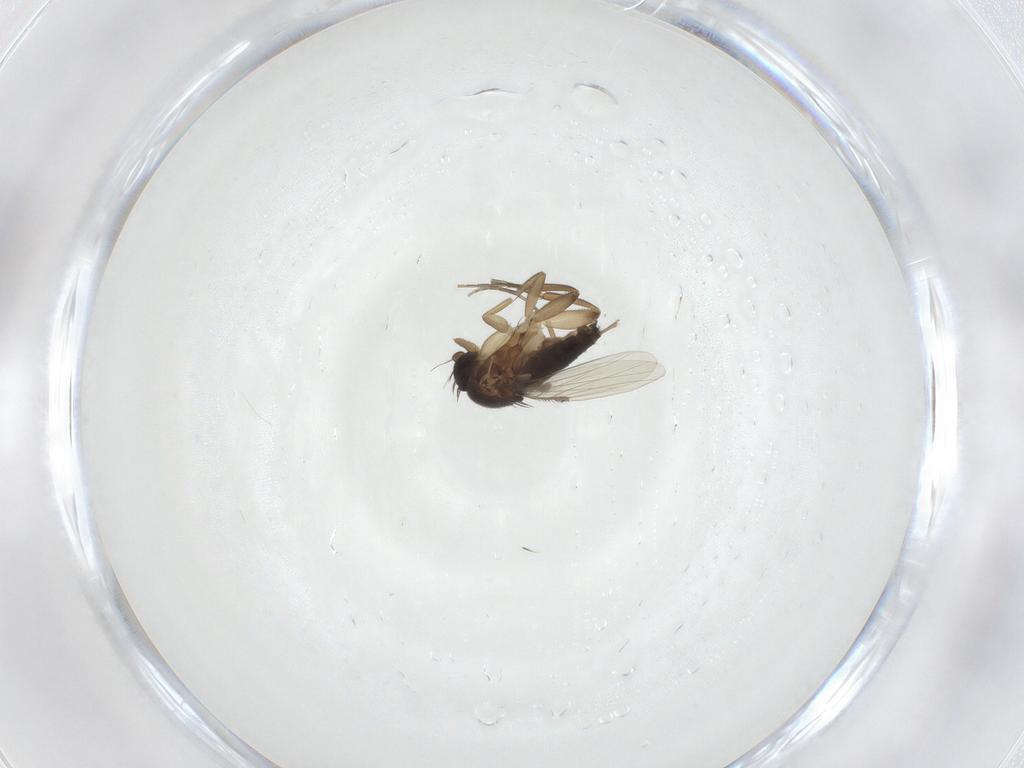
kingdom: Animalia
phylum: Arthropoda
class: Insecta
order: Diptera
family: Phoridae
